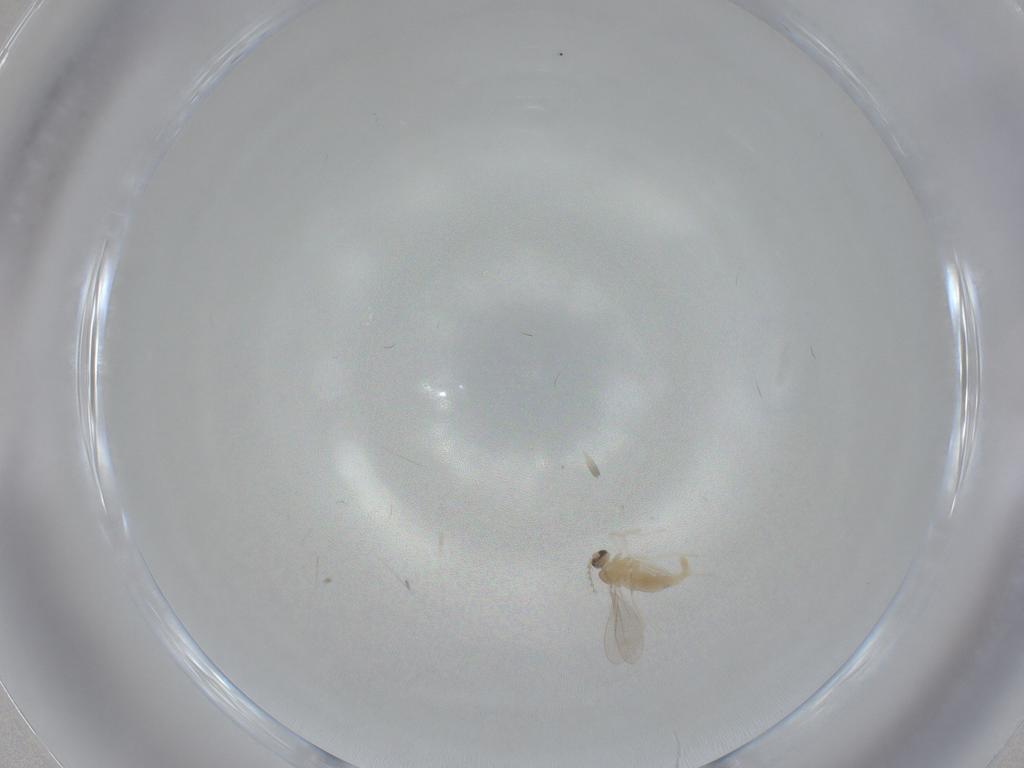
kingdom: Animalia
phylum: Arthropoda
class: Insecta
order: Diptera
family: Cecidomyiidae
